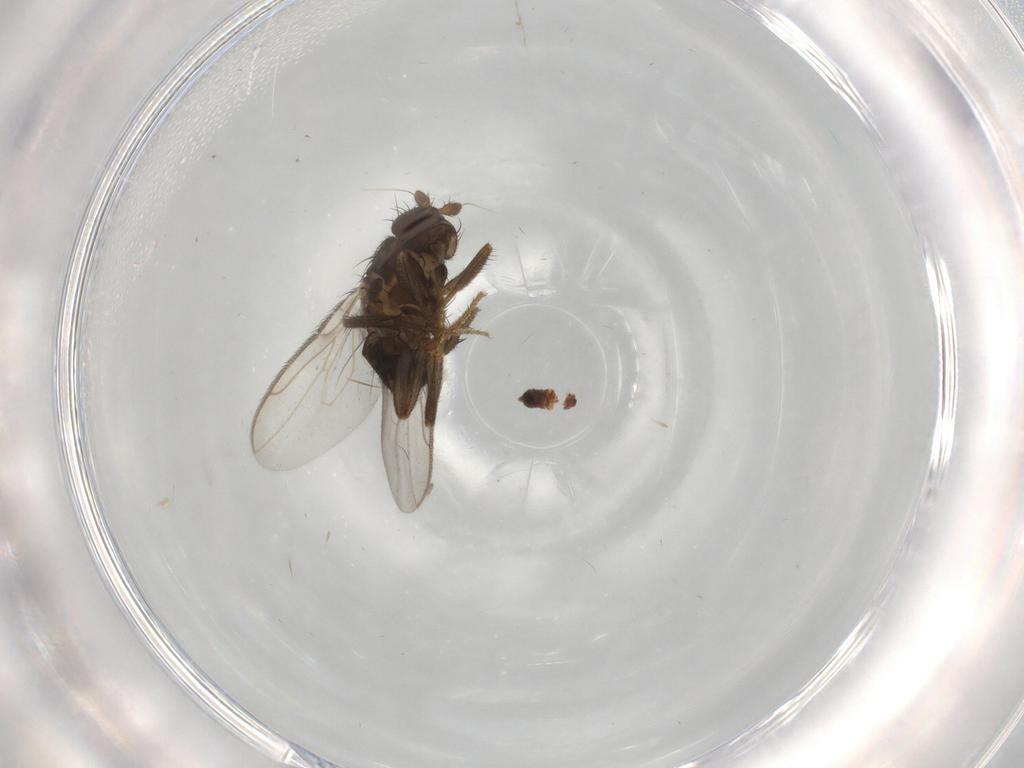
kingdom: Animalia
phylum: Arthropoda
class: Insecta
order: Diptera
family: Sphaeroceridae
